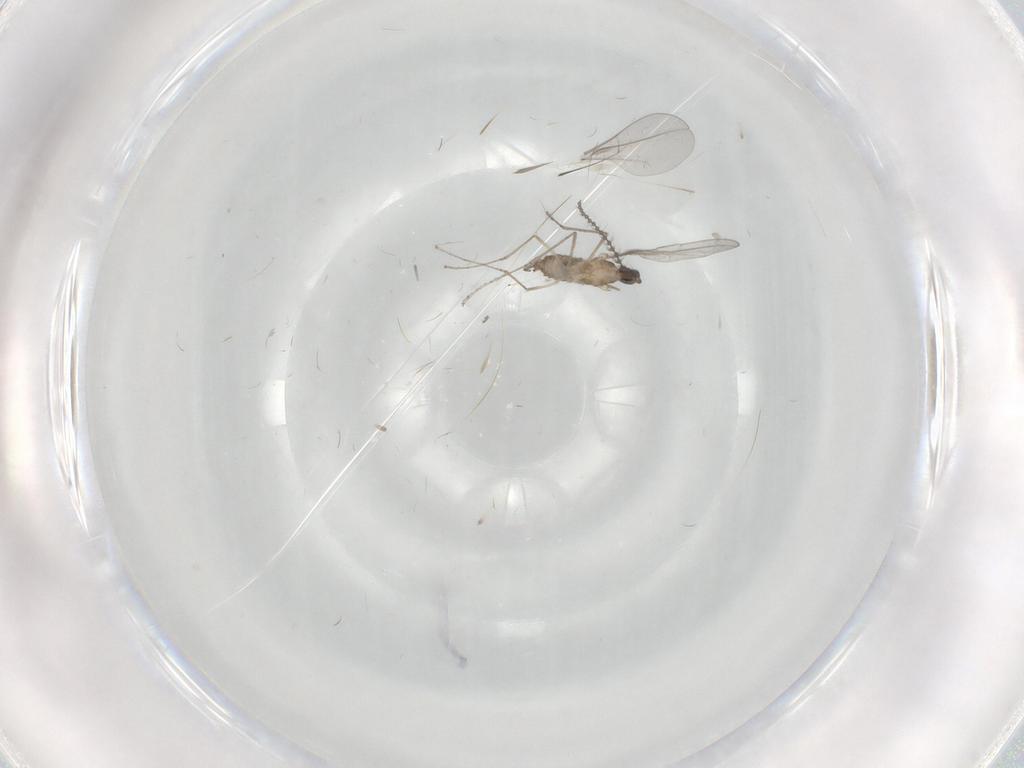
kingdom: Animalia
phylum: Arthropoda
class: Insecta
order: Diptera
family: Cecidomyiidae
